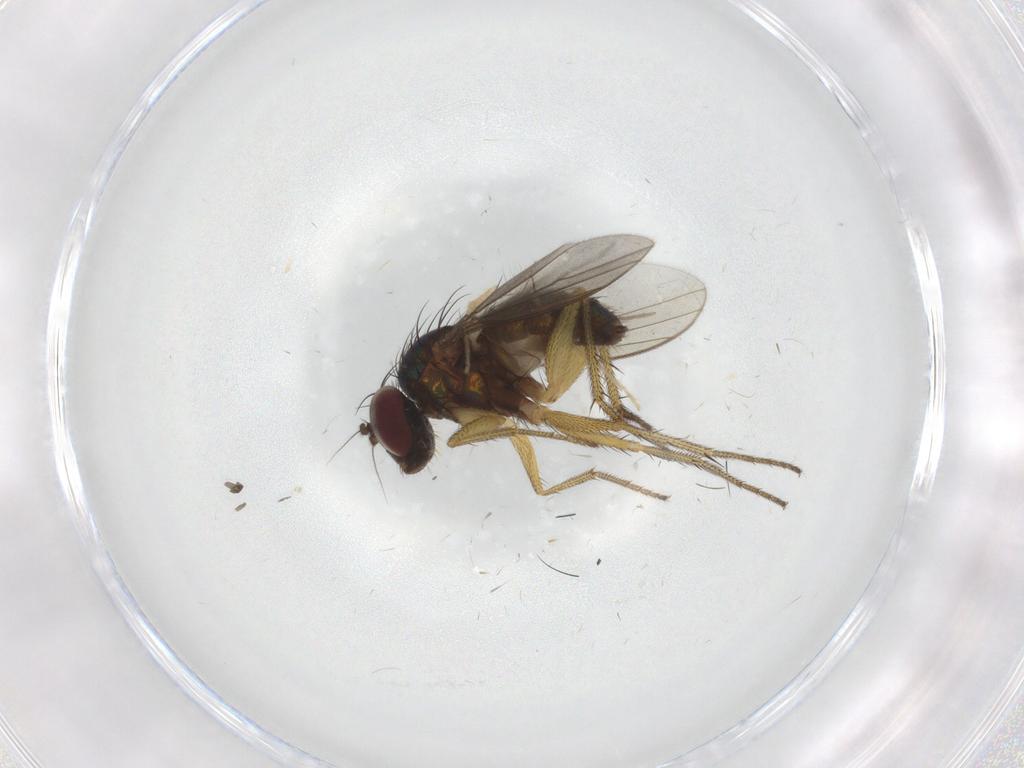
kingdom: Animalia
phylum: Arthropoda
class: Insecta
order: Diptera
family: Sciaridae
